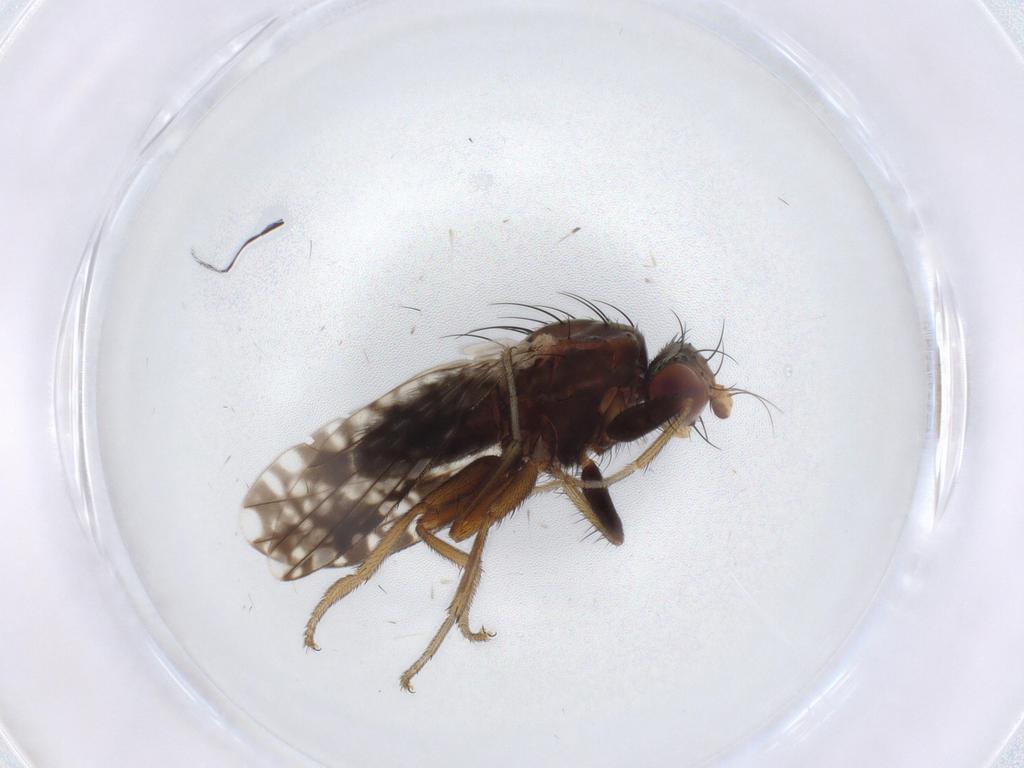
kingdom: Animalia
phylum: Arthropoda
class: Insecta
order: Diptera
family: Tephritidae
